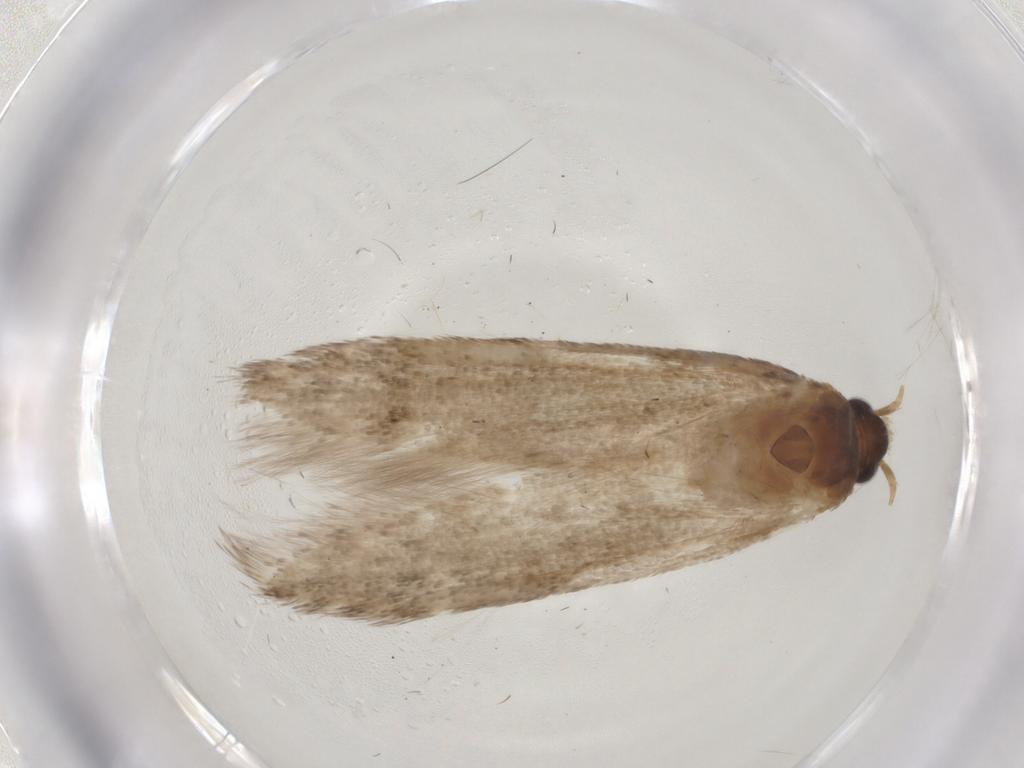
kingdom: Animalia
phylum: Arthropoda
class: Insecta
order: Lepidoptera
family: Coleophoridae
